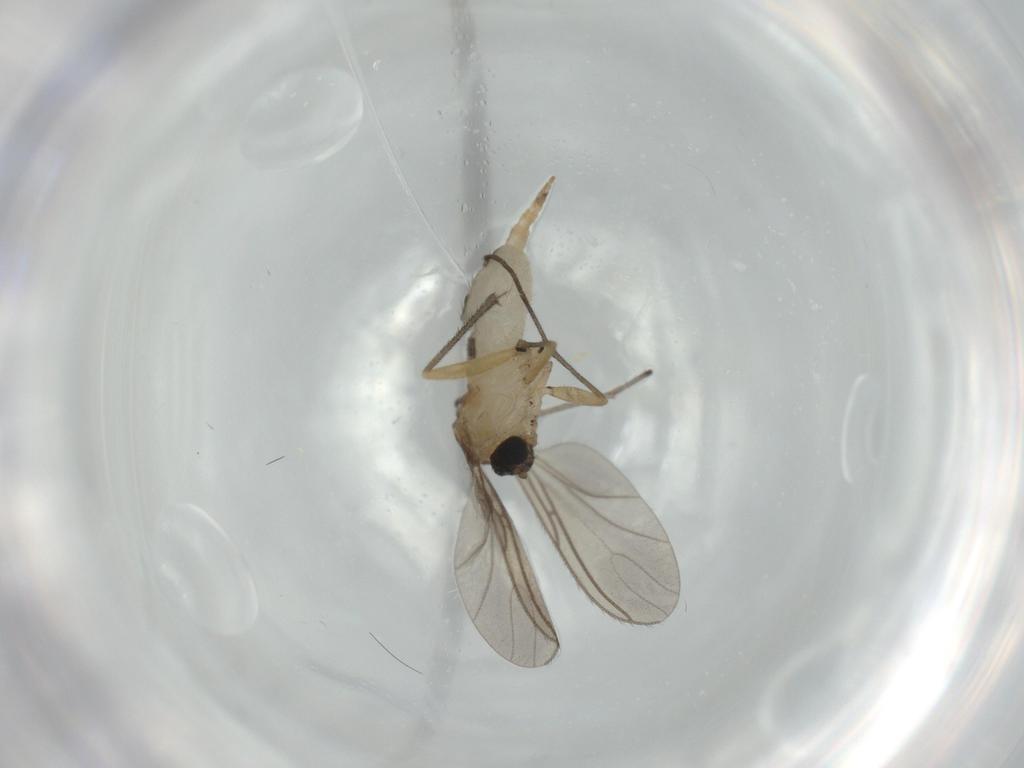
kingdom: Animalia
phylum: Arthropoda
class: Insecta
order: Diptera
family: Sciaridae
